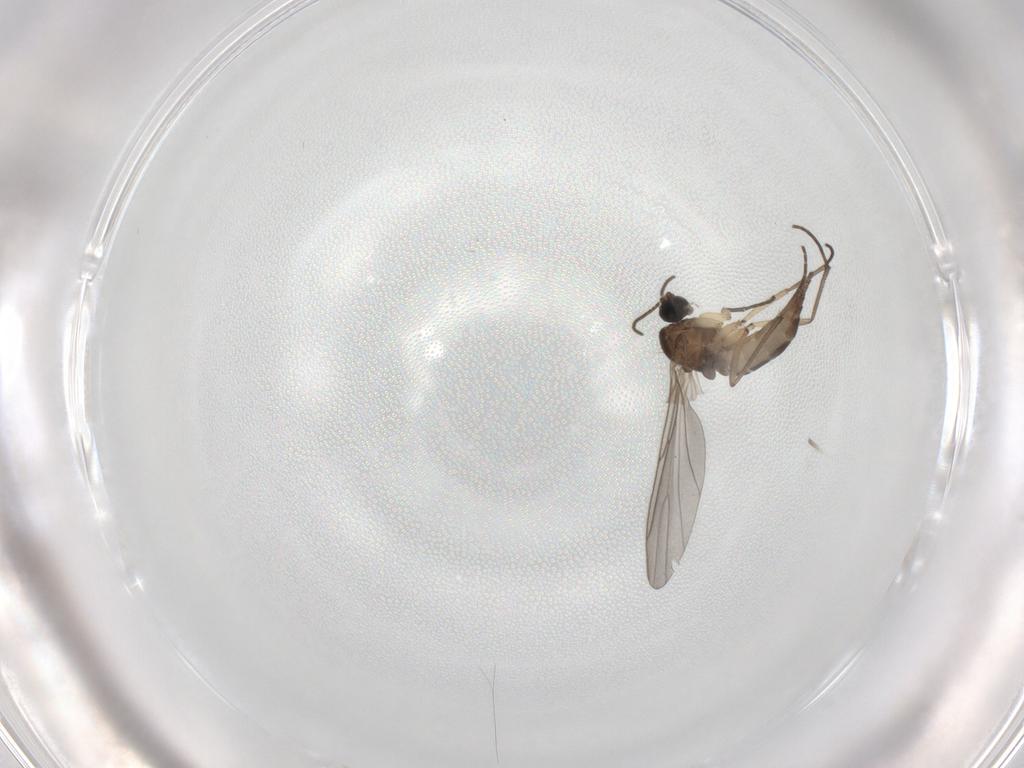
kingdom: Animalia
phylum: Arthropoda
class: Insecta
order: Diptera
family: Sciaridae
